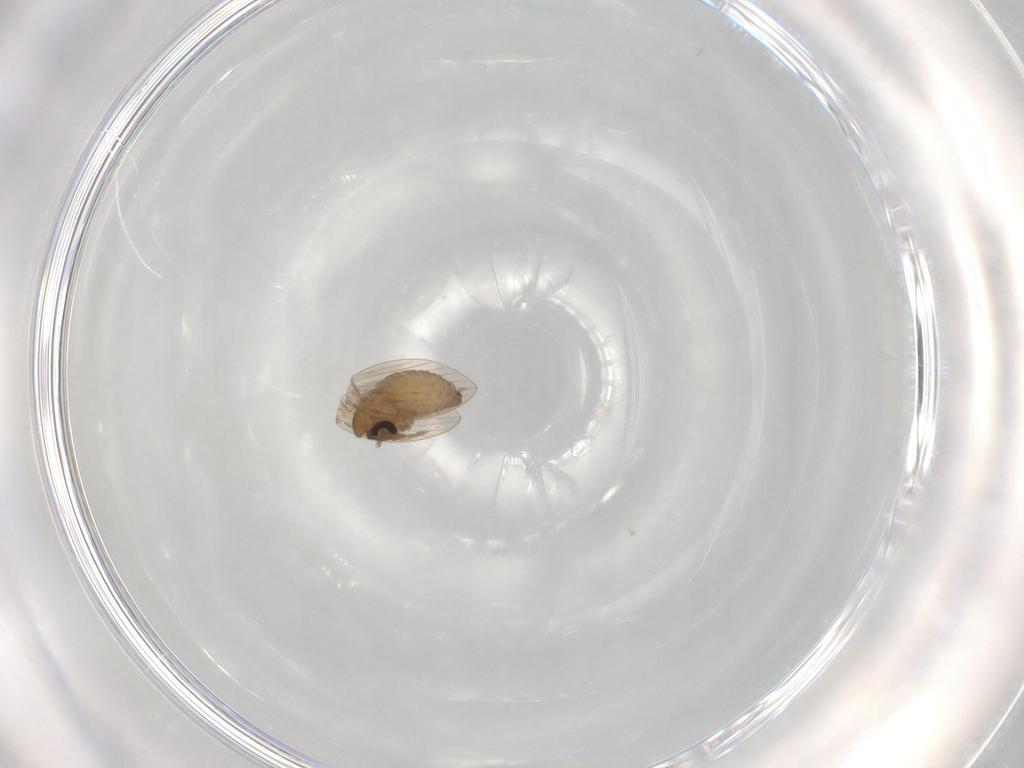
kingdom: Animalia
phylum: Arthropoda
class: Insecta
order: Diptera
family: Psychodidae
